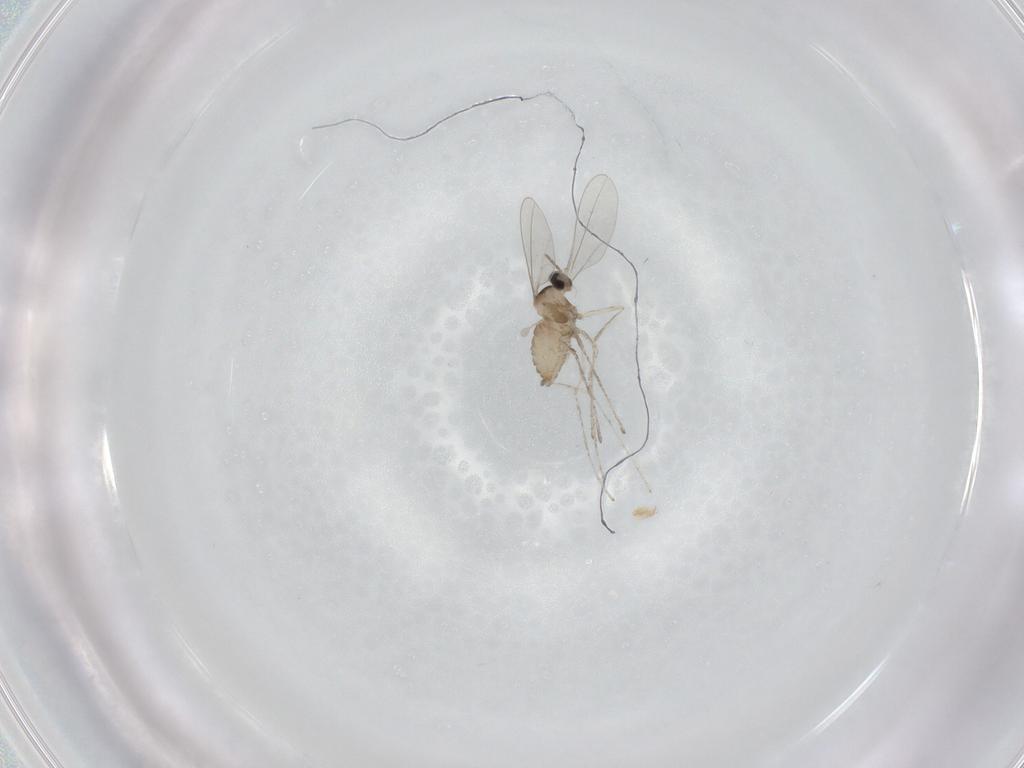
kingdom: Animalia
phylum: Arthropoda
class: Insecta
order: Diptera
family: Cecidomyiidae
